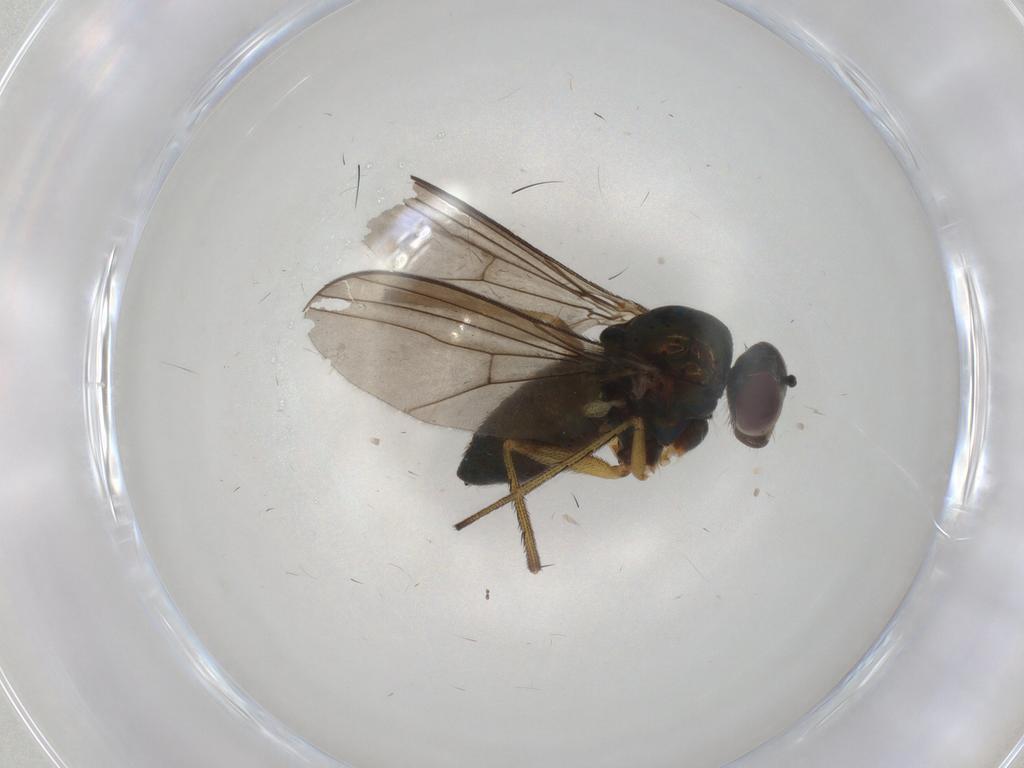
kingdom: Animalia
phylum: Arthropoda
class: Insecta
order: Diptera
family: Dolichopodidae
